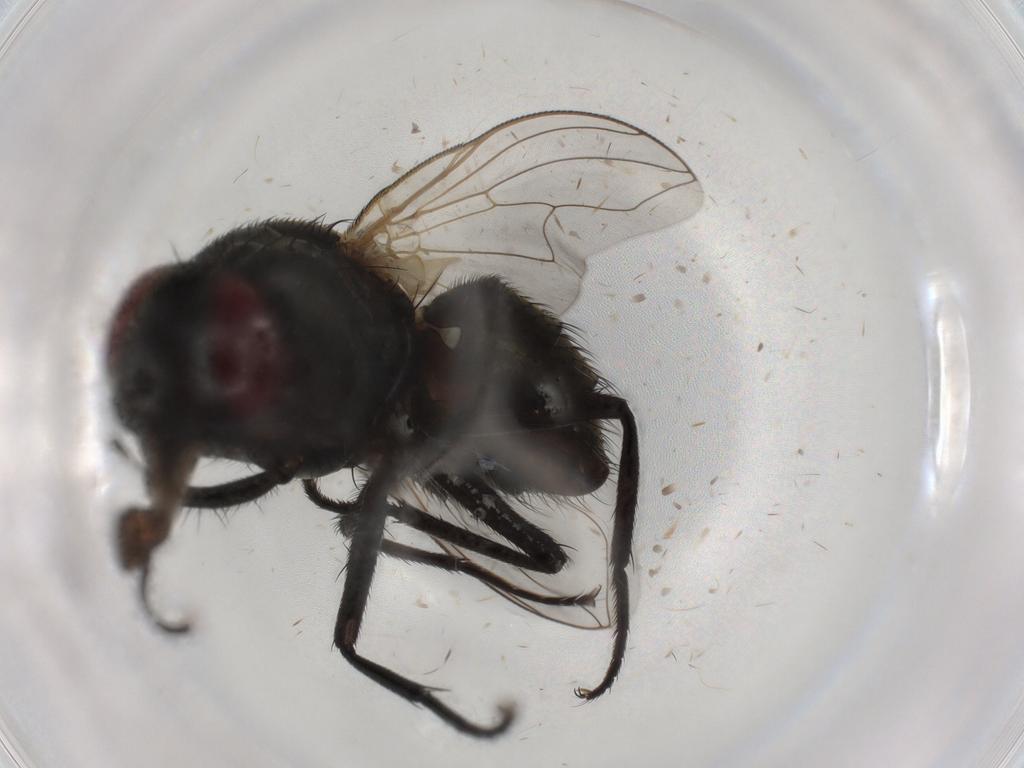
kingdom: Animalia
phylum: Arthropoda
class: Insecta
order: Diptera
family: Muscidae
